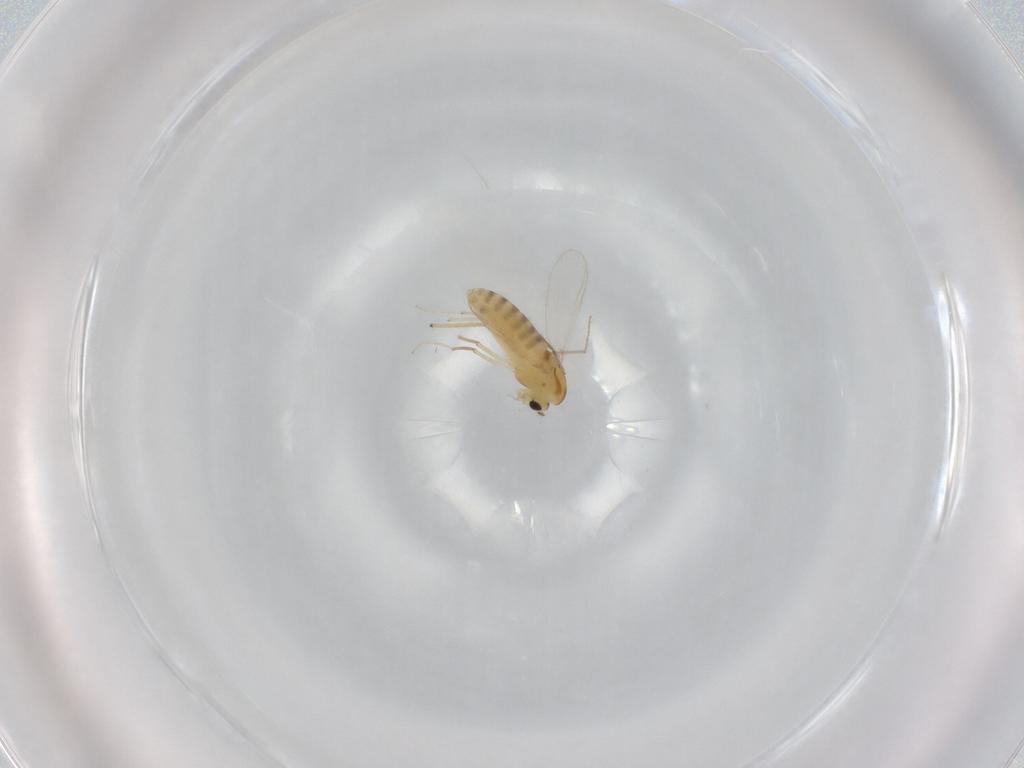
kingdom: Animalia
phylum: Arthropoda
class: Insecta
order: Diptera
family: Chironomidae
